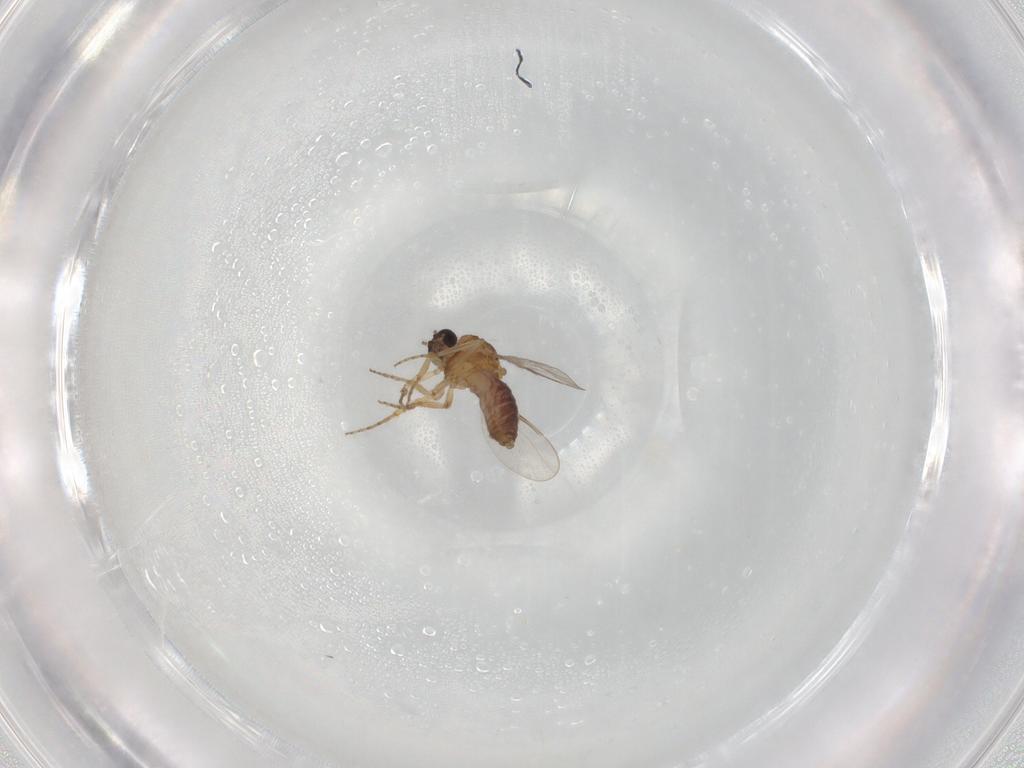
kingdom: Animalia
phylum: Arthropoda
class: Insecta
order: Diptera
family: Ceratopogonidae
